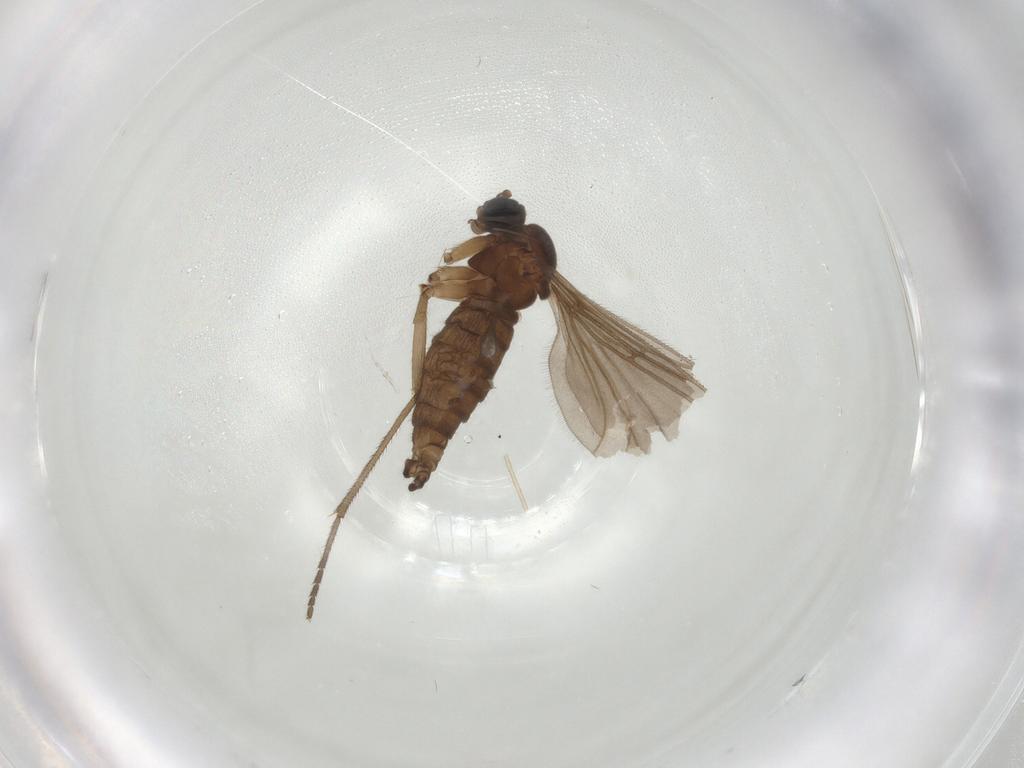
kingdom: Animalia
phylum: Arthropoda
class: Insecta
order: Diptera
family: Sciaridae
